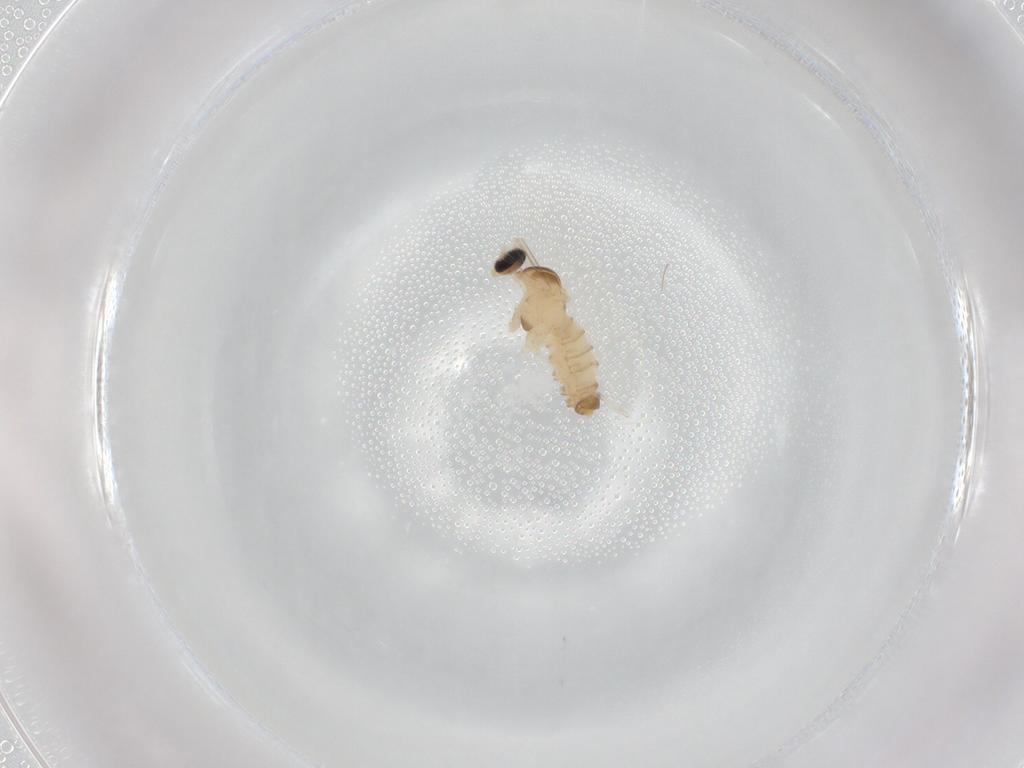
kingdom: Animalia
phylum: Arthropoda
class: Insecta
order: Diptera
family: Cecidomyiidae
